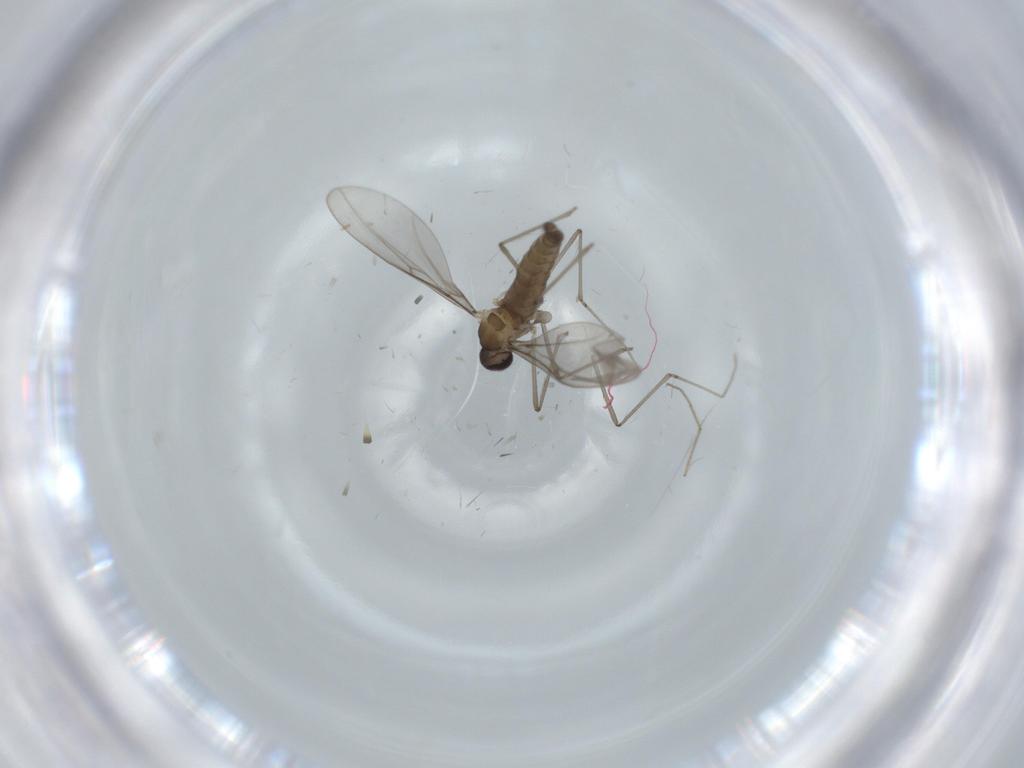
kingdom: Animalia
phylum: Arthropoda
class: Insecta
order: Diptera
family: Cecidomyiidae
